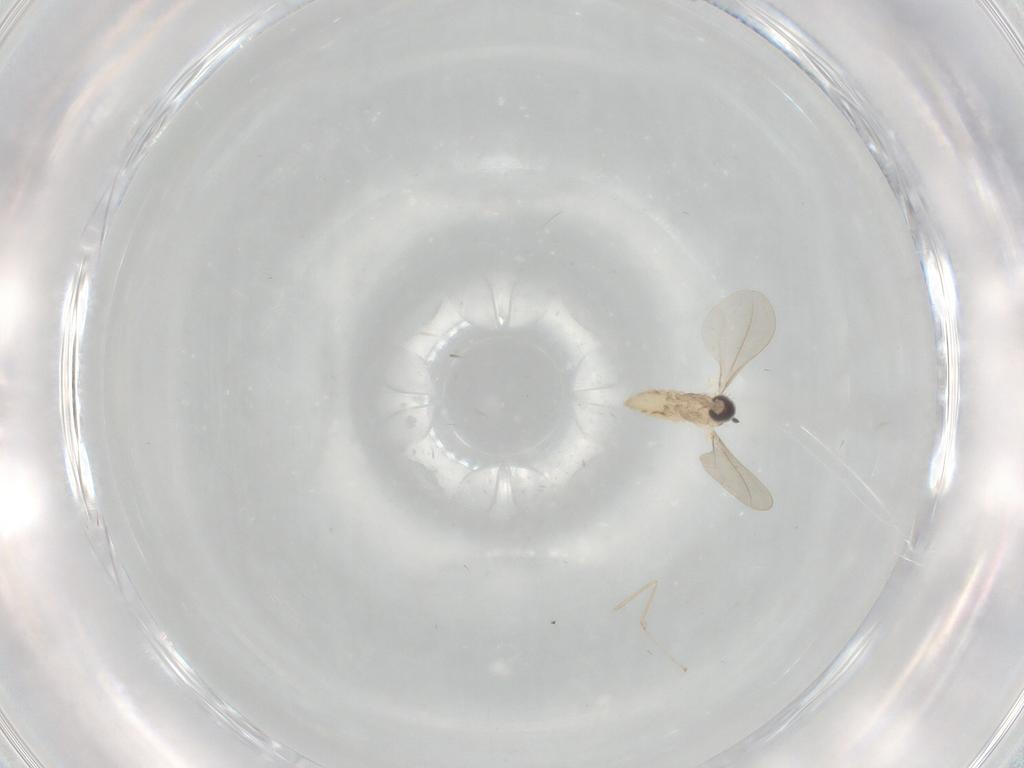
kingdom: Animalia
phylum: Arthropoda
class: Insecta
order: Diptera
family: Cecidomyiidae
